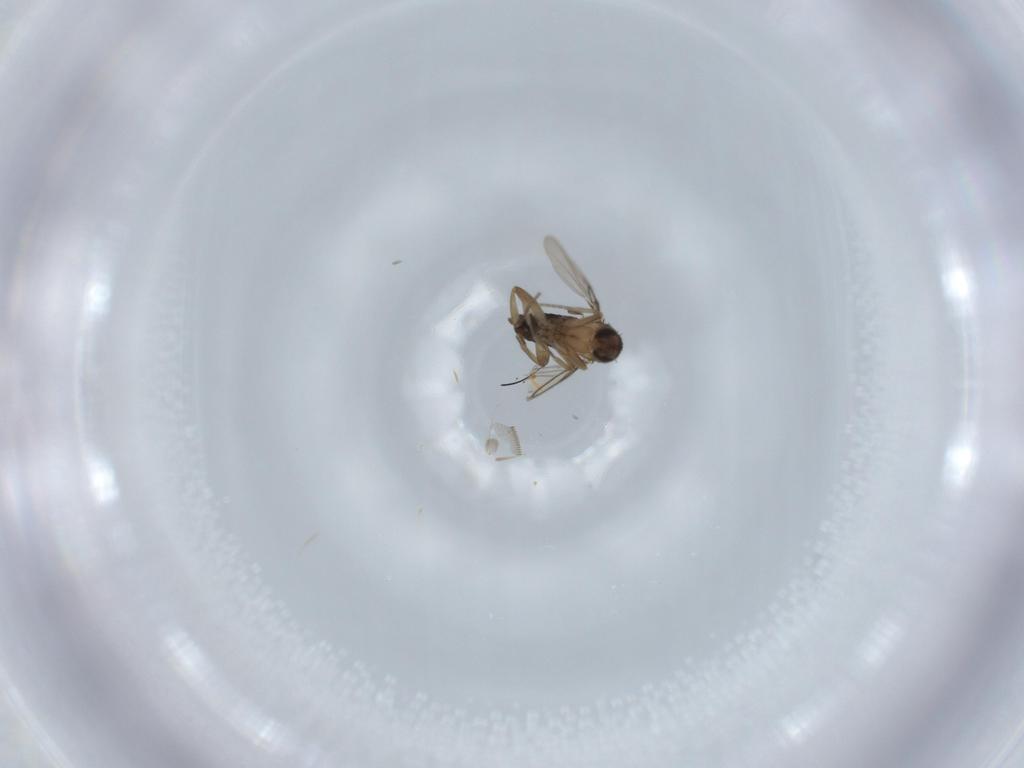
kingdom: Animalia
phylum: Arthropoda
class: Insecta
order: Diptera
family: Phoridae
